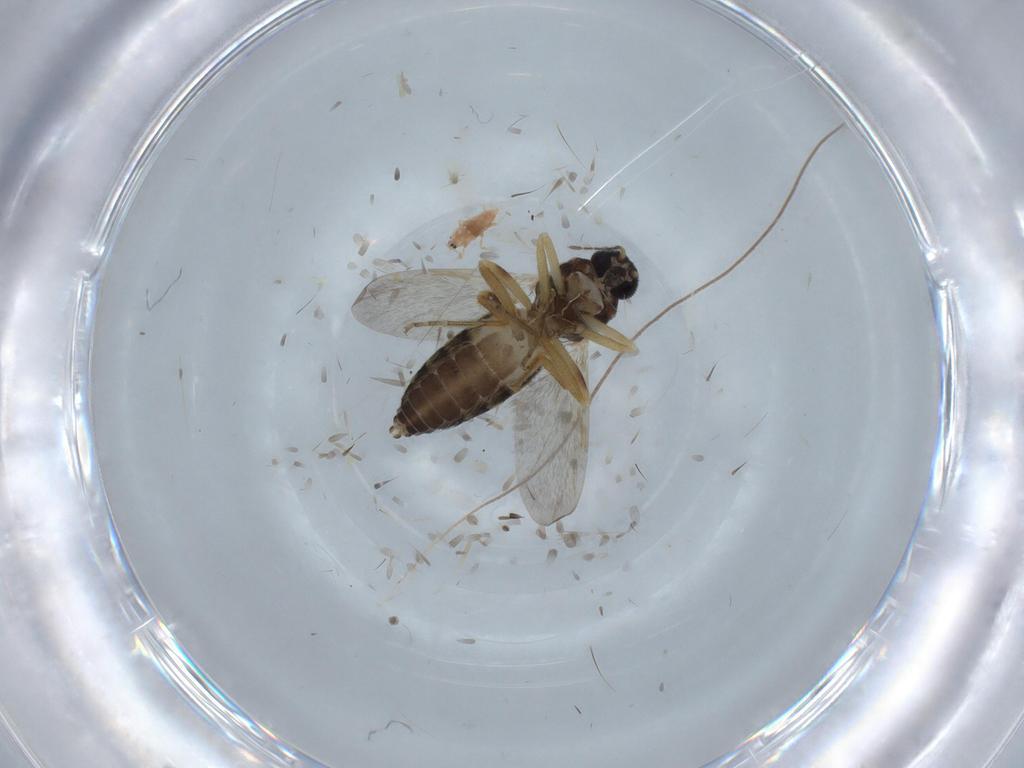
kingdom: Animalia
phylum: Arthropoda
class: Insecta
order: Diptera
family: Ceratopogonidae
